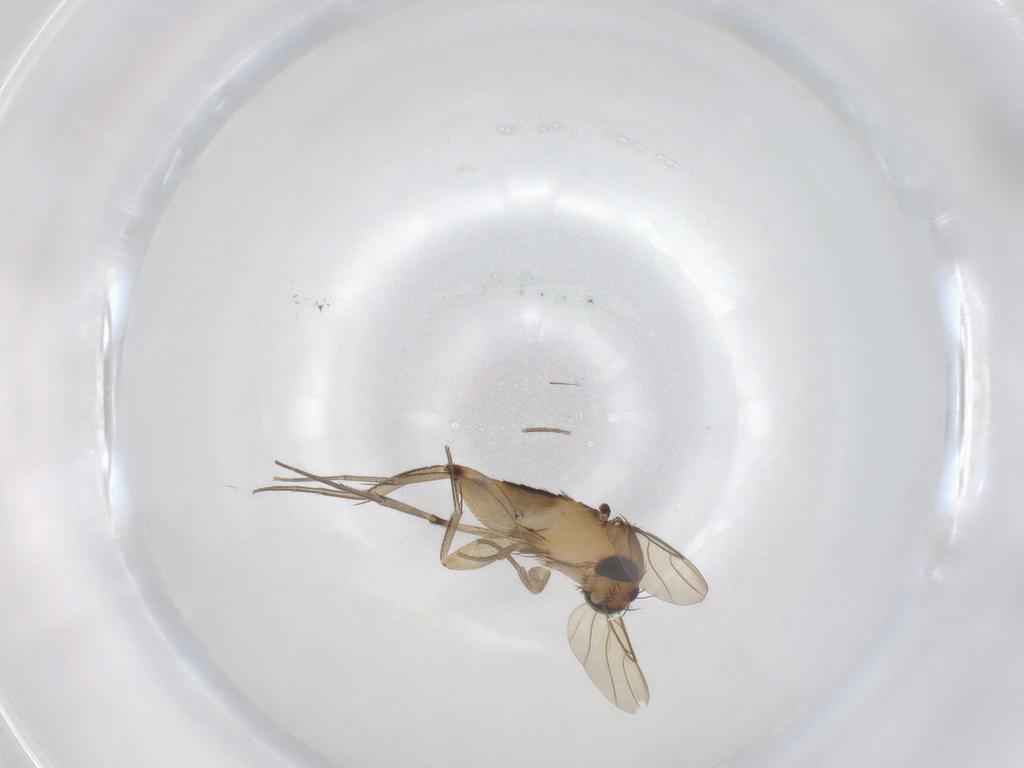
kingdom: Animalia
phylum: Arthropoda
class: Insecta
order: Diptera
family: Phoridae
